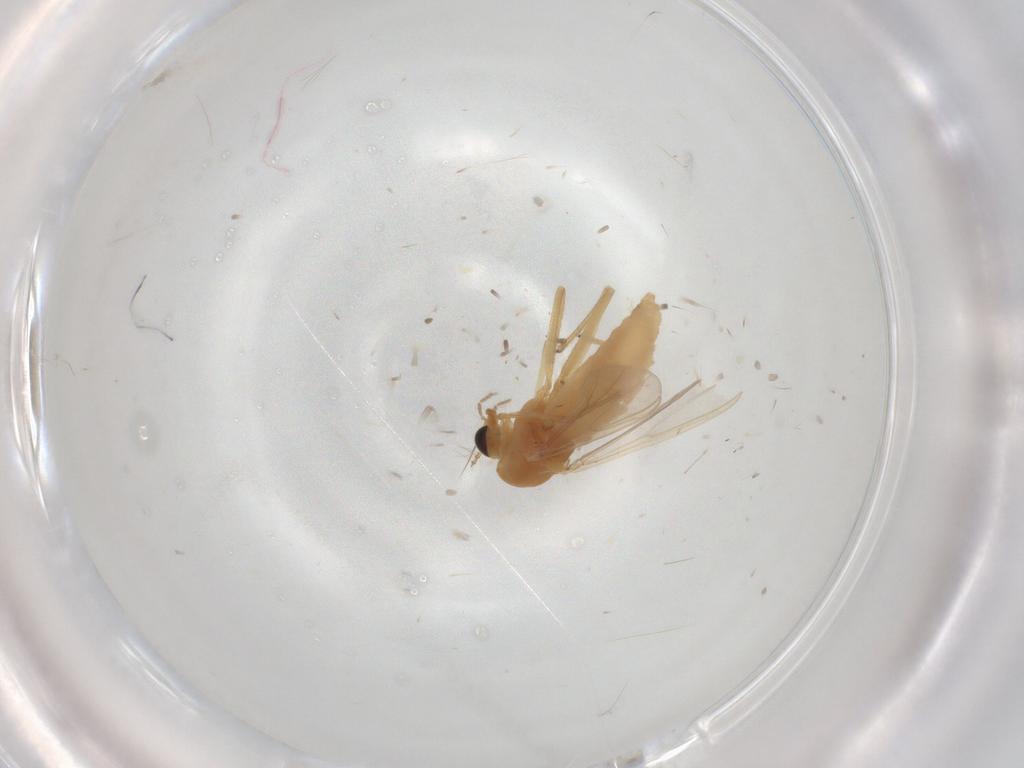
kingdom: Animalia
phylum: Arthropoda
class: Insecta
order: Diptera
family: Chironomidae
